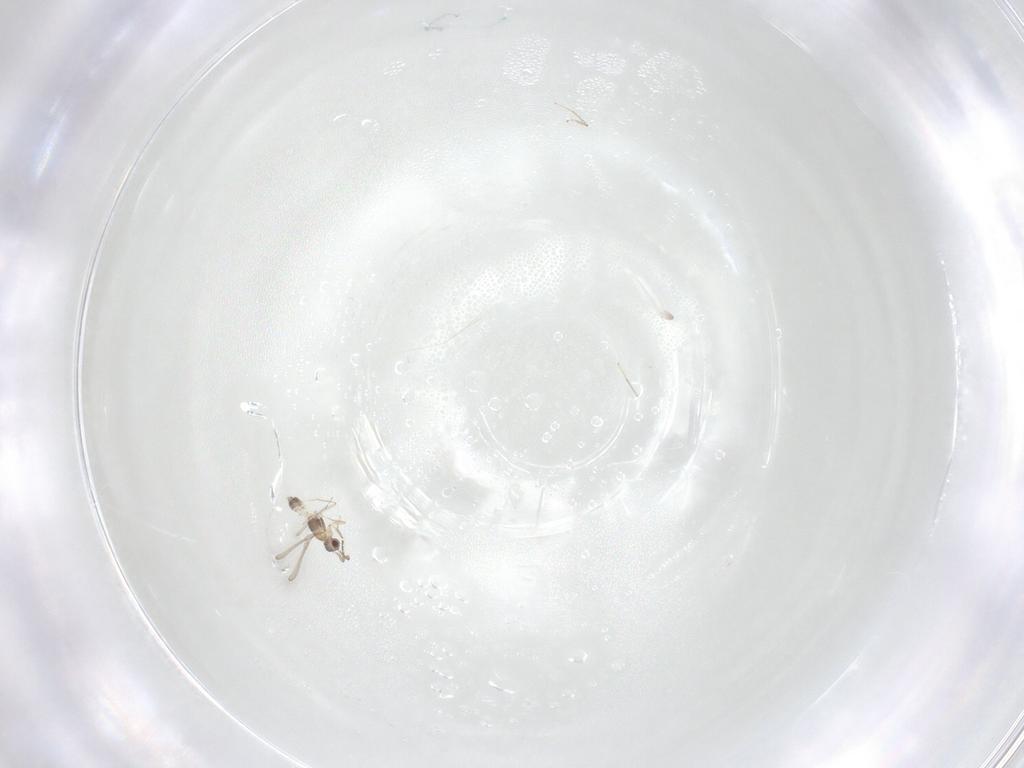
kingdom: Animalia
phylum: Arthropoda
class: Insecta
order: Hymenoptera
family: Mymaridae
